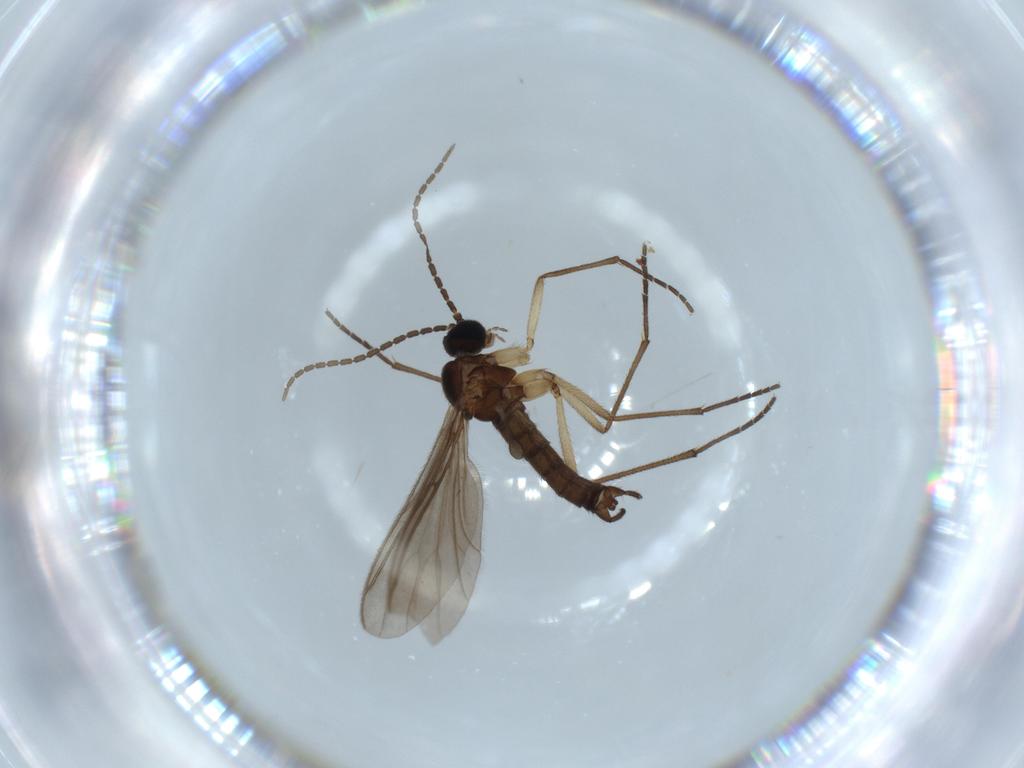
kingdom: Animalia
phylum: Arthropoda
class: Insecta
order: Diptera
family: Sciaridae
